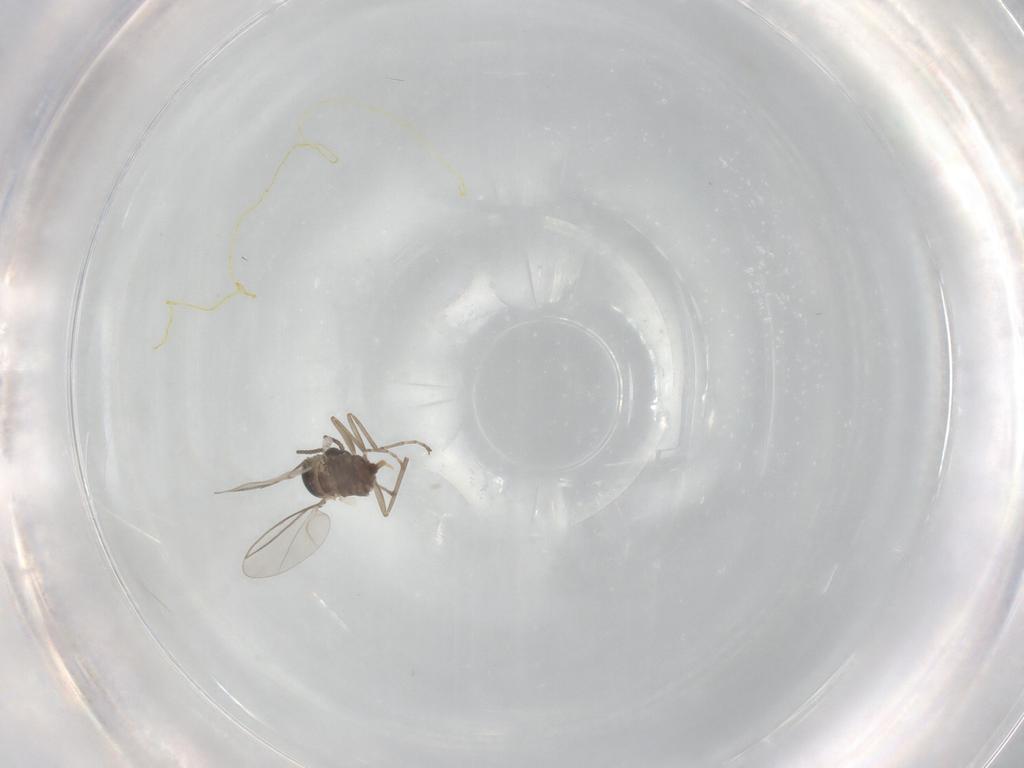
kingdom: Animalia
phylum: Arthropoda
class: Insecta
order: Diptera
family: Cecidomyiidae
